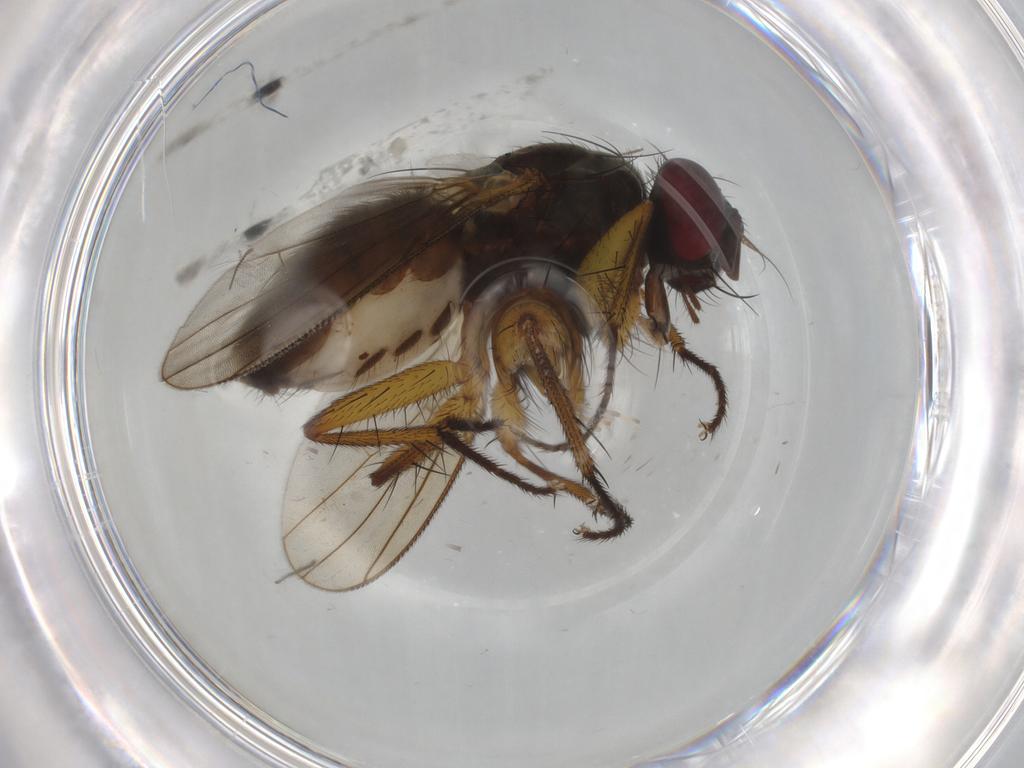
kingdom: Animalia
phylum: Arthropoda
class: Insecta
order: Diptera
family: Muscidae
